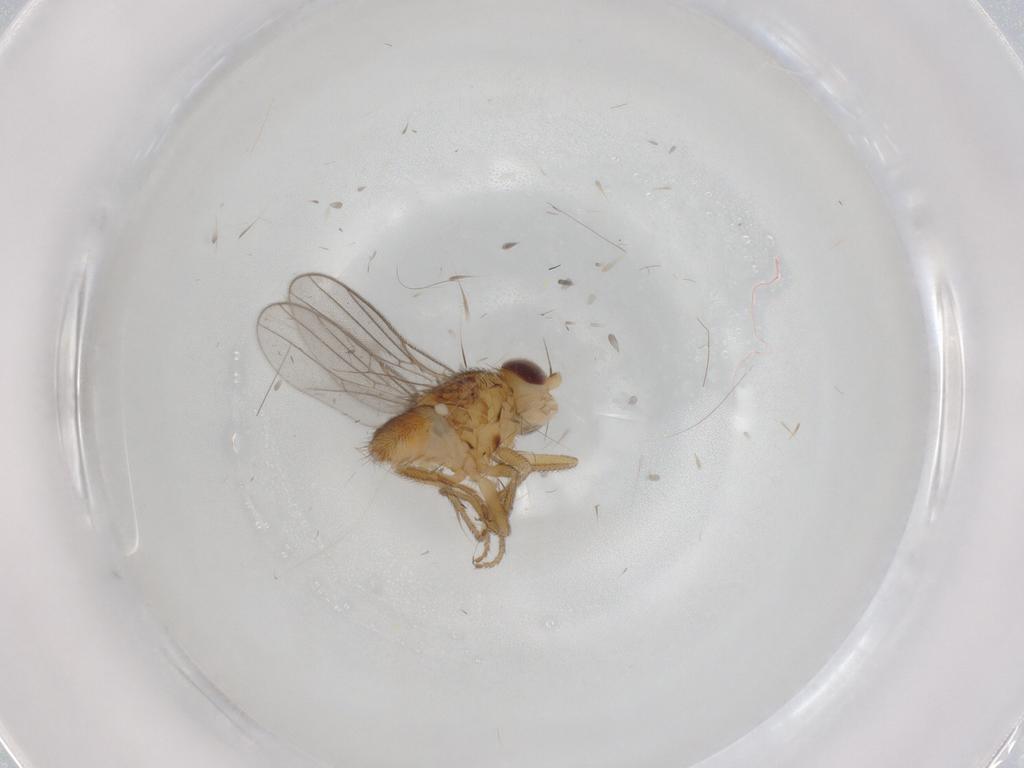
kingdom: Animalia
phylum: Arthropoda
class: Insecta
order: Diptera
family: Chloropidae
